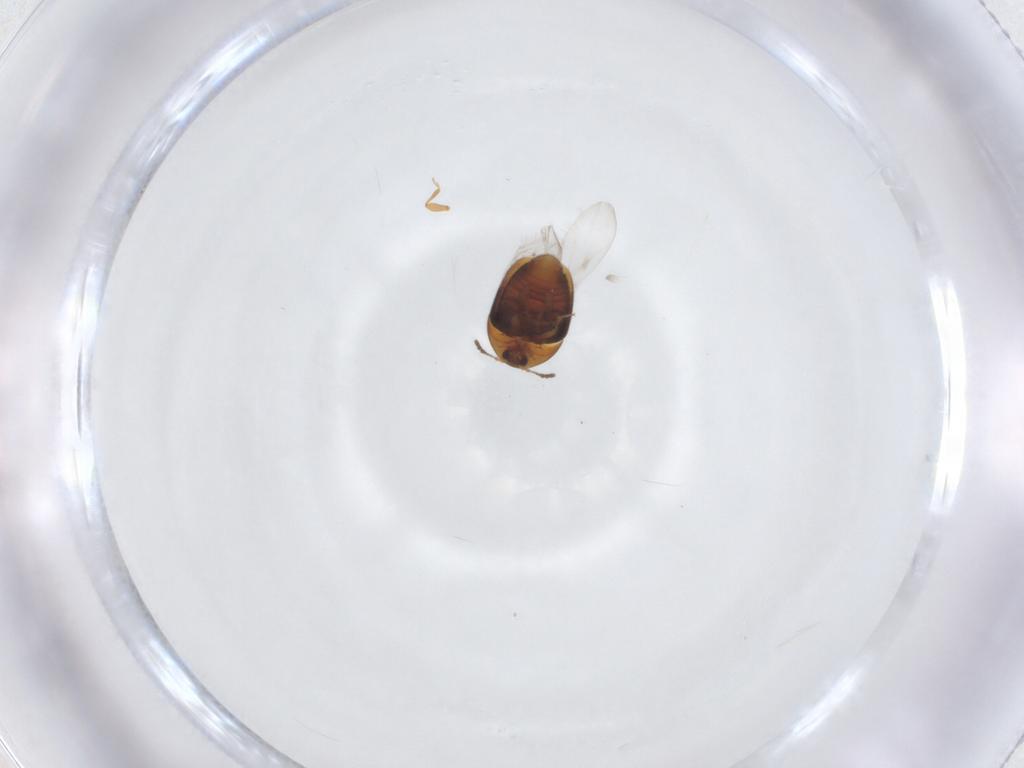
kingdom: Animalia
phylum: Arthropoda
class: Insecta
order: Coleoptera
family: Corylophidae
